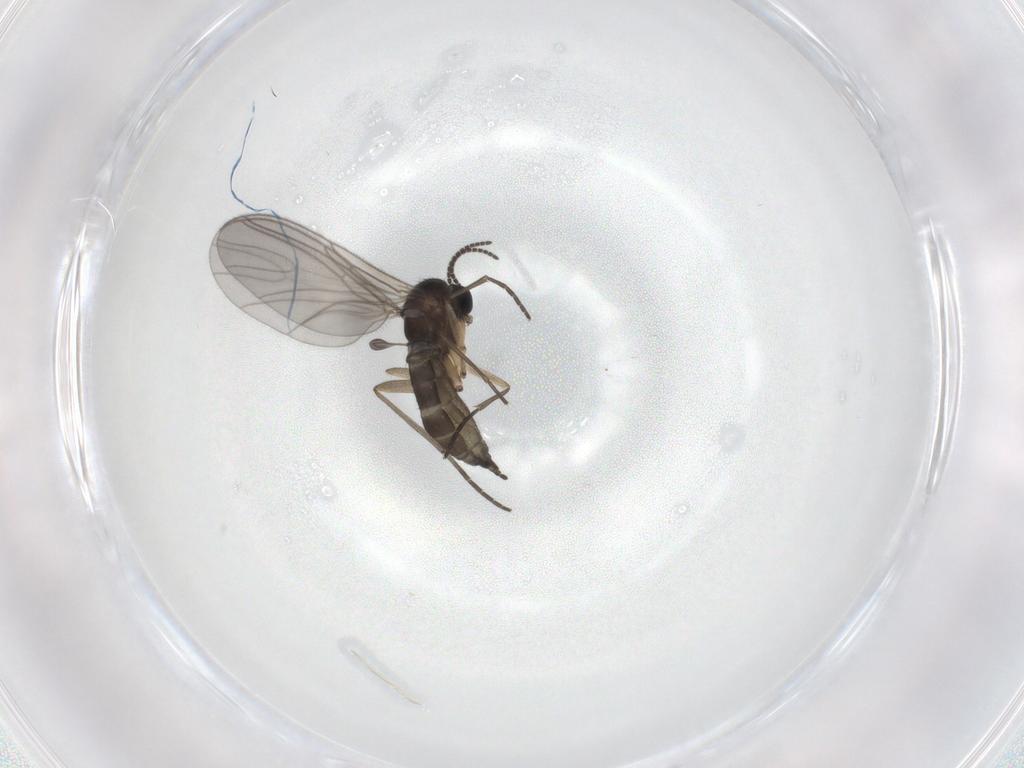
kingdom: Animalia
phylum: Arthropoda
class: Insecta
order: Diptera
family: Sciaridae
